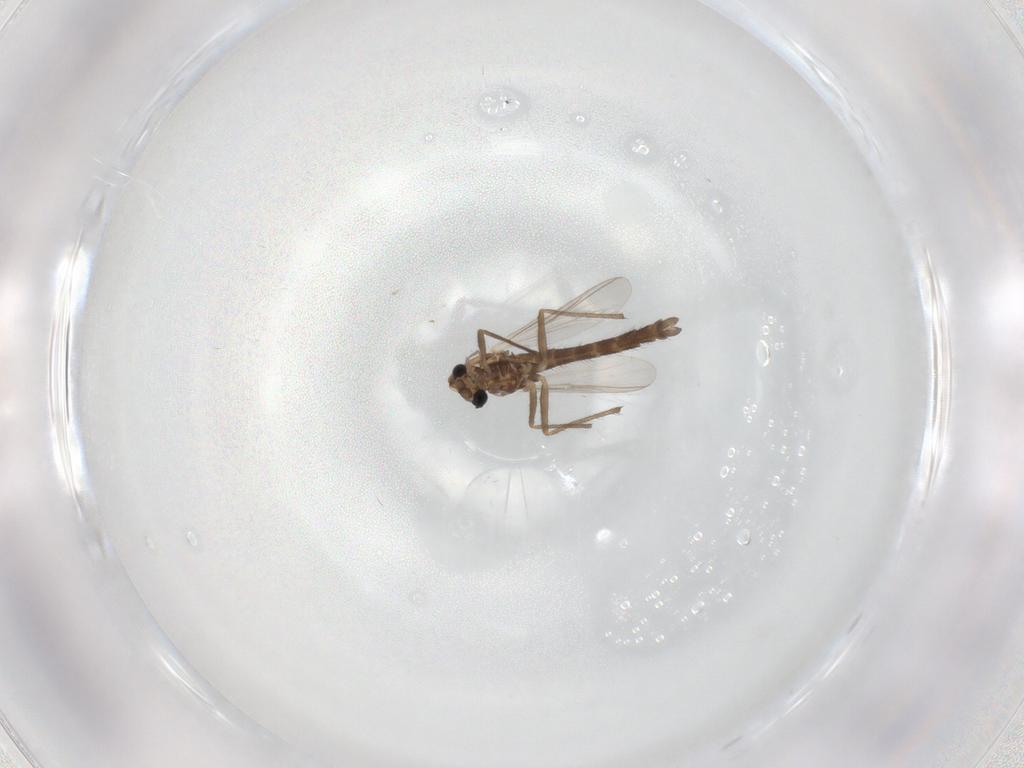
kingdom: Animalia
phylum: Arthropoda
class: Insecta
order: Diptera
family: Chironomidae
